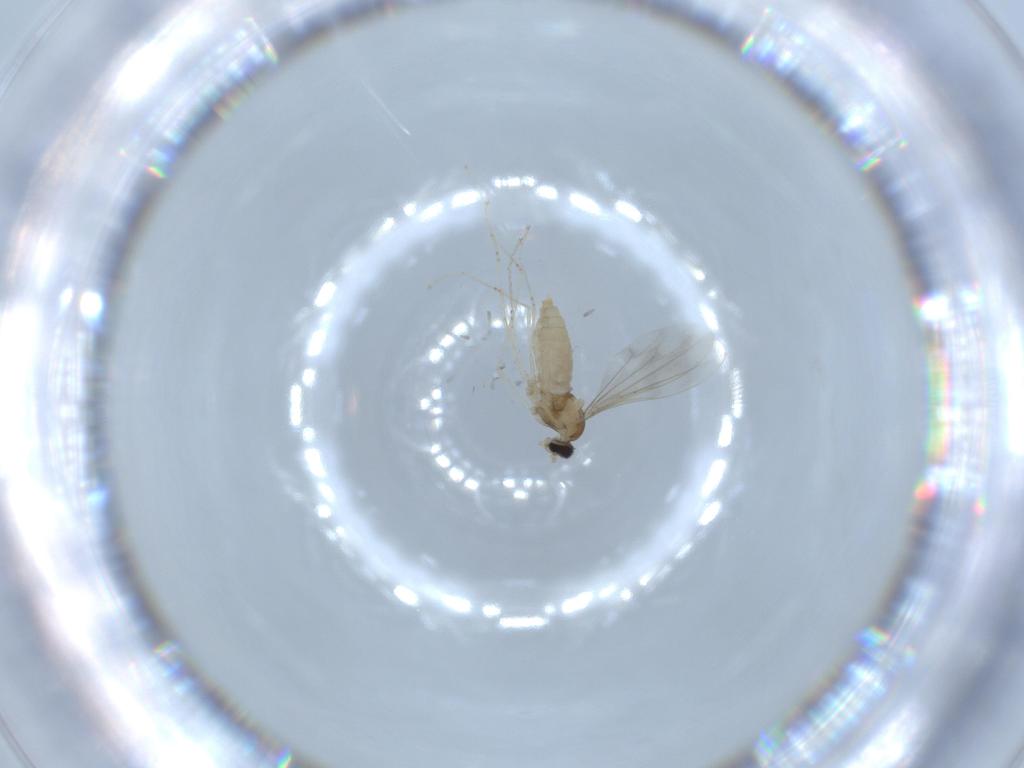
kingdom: Animalia
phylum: Arthropoda
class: Insecta
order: Diptera
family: Cecidomyiidae
